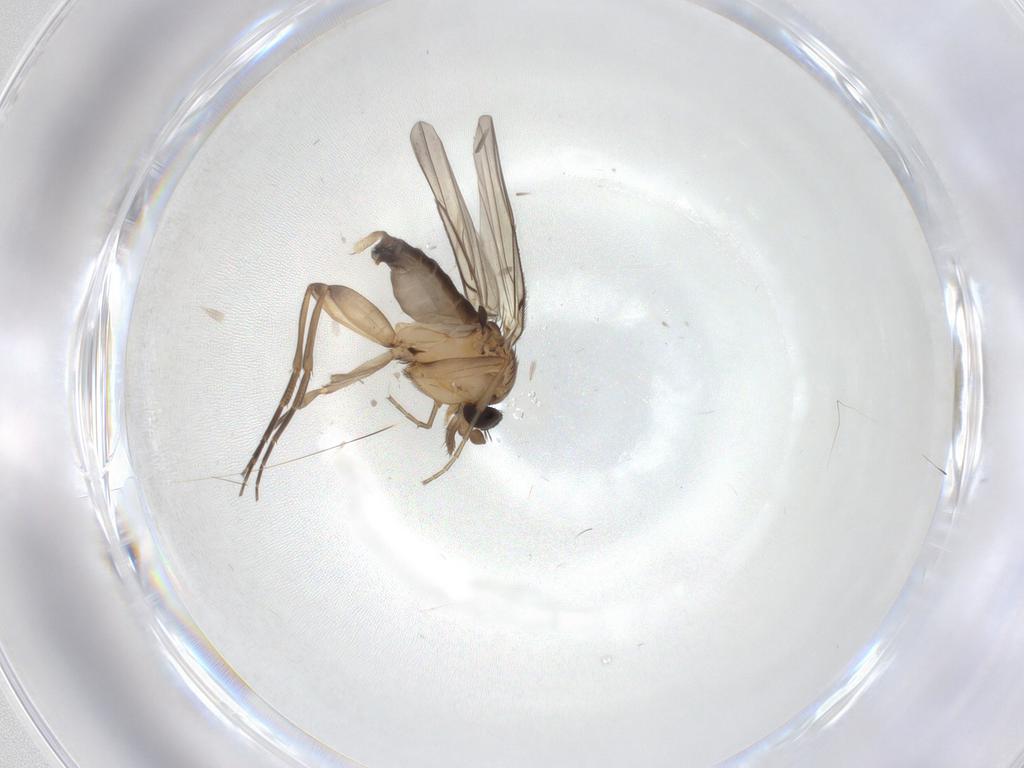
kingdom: Animalia
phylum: Arthropoda
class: Insecta
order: Diptera
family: Phoridae
